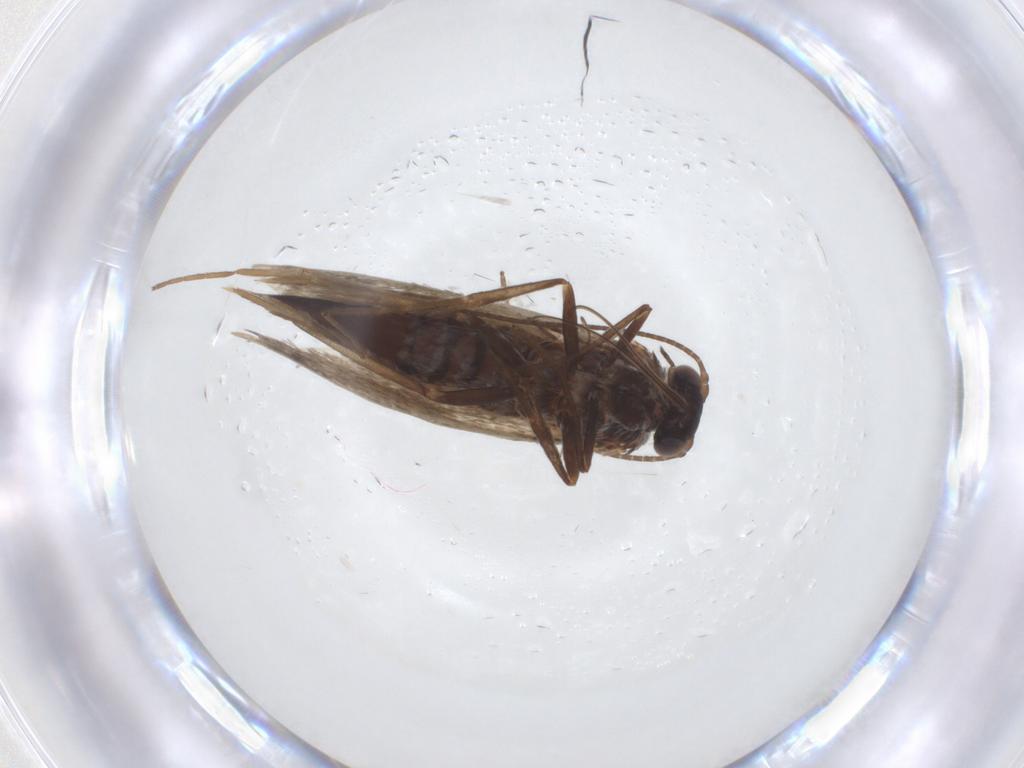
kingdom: Animalia
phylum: Arthropoda
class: Insecta
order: Lepidoptera
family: Adelidae
